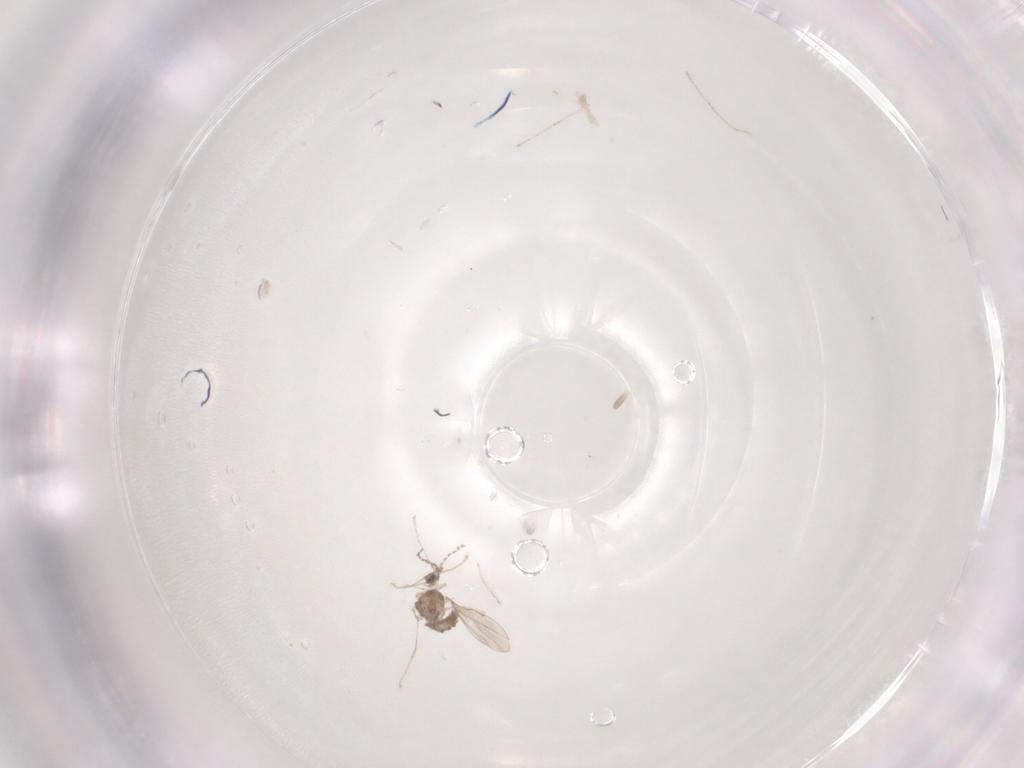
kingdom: Animalia
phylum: Arthropoda
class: Insecta
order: Diptera
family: Cecidomyiidae
